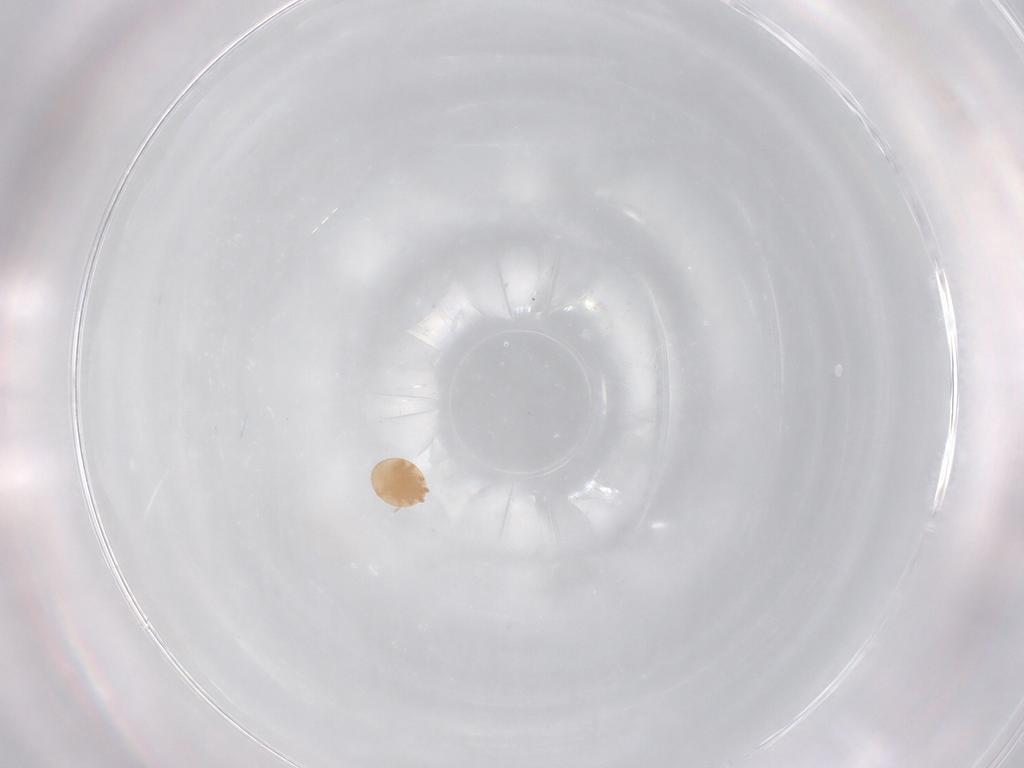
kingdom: Animalia
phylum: Arthropoda
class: Arachnida
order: Mesostigmata
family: Trematuridae
